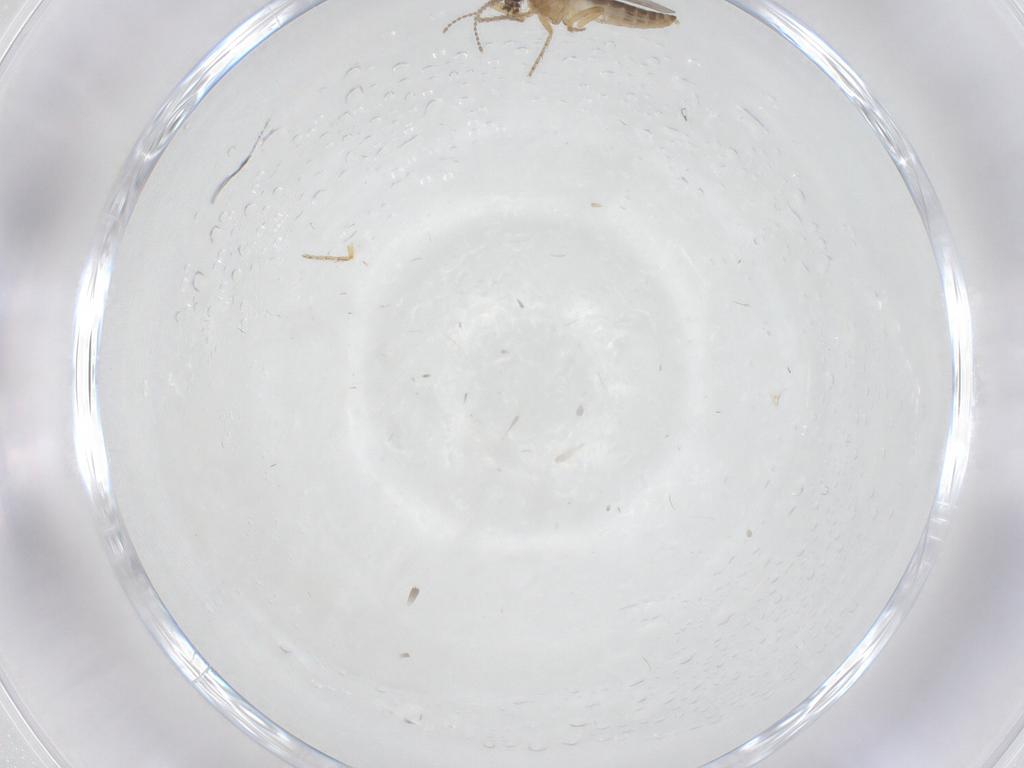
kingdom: Animalia
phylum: Arthropoda
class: Insecta
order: Diptera
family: Ceratopogonidae
